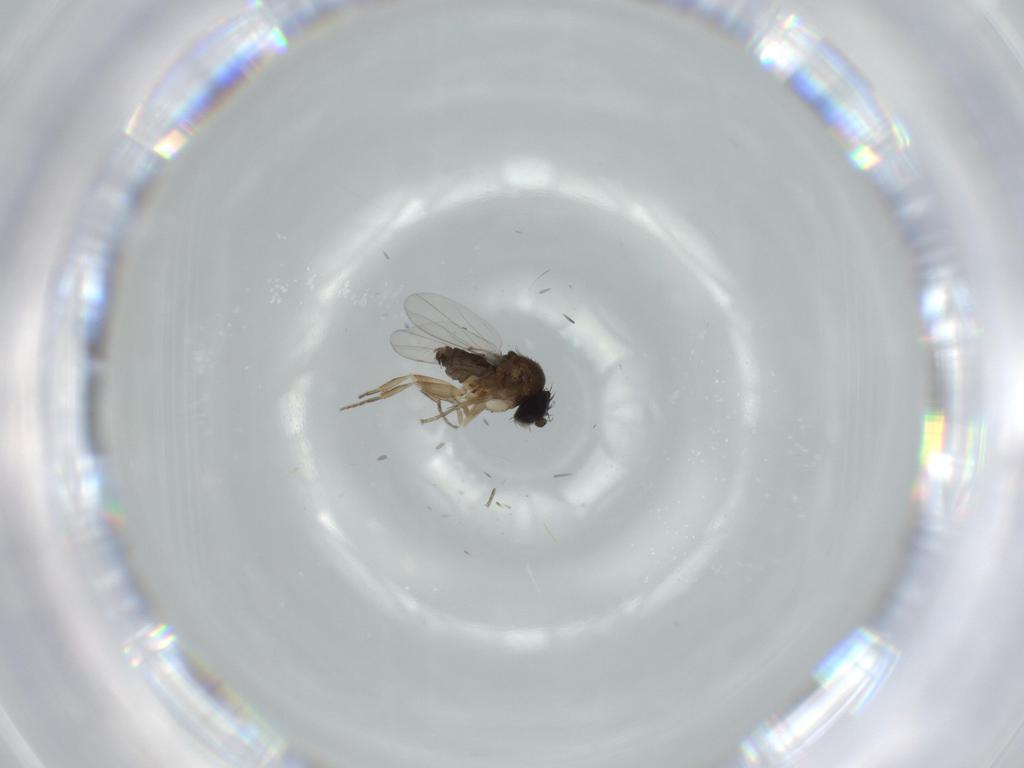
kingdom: Animalia
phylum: Arthropoda
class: Insecta
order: Diptera
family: Phoridae
